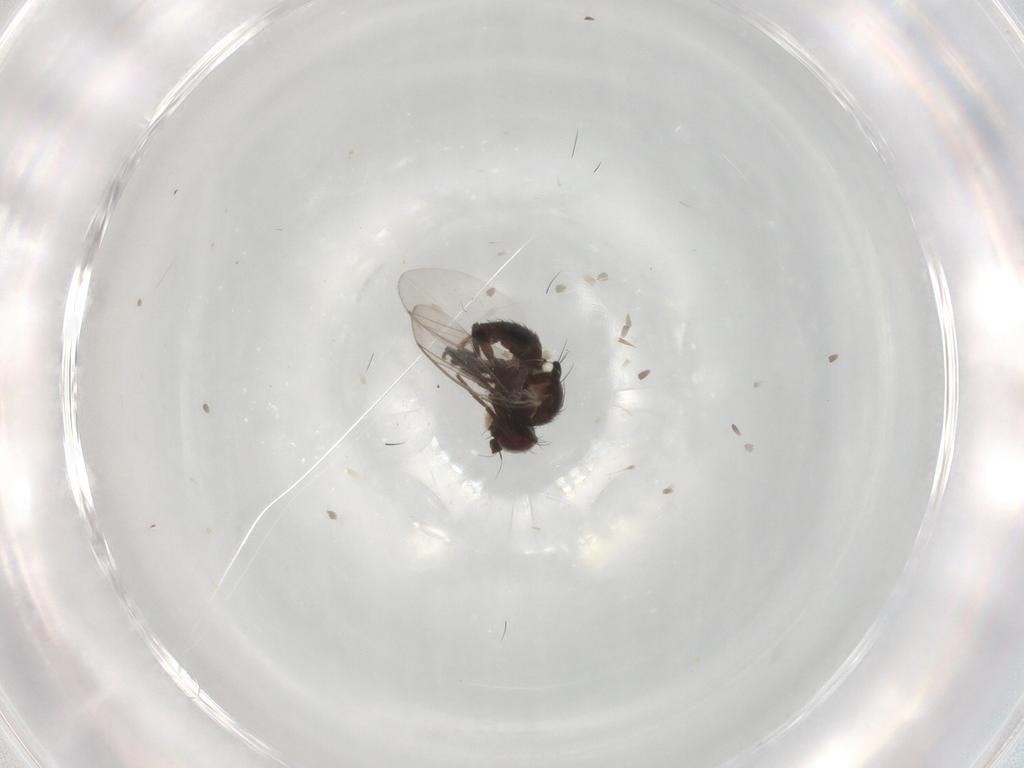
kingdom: Animalia
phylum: Arthropoda
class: Insecta
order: Diptera
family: Agromyzidae
